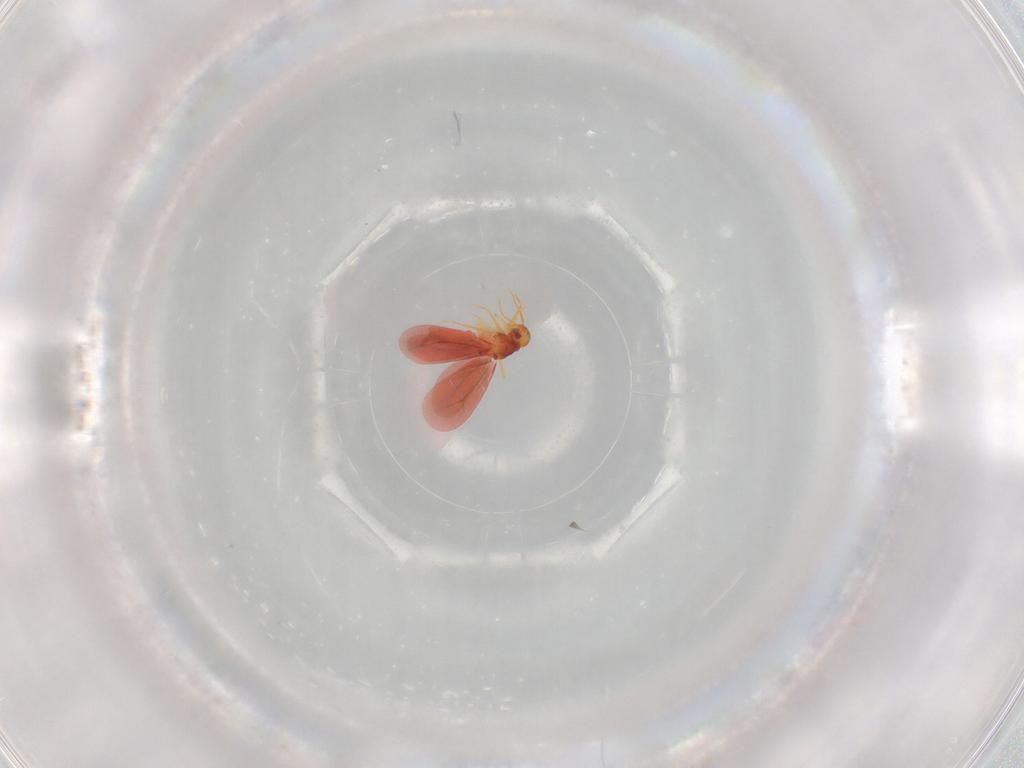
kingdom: Animalia
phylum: Arthropoda
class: Insecta
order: Hemiptera
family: Aleyrodidae
